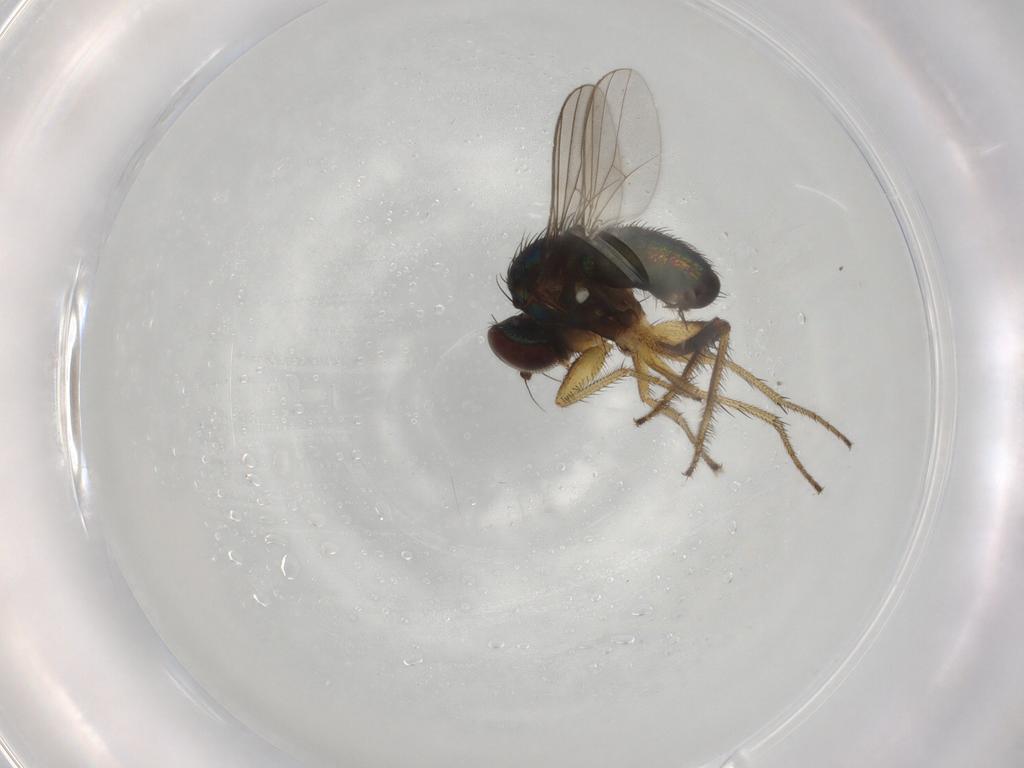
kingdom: Animalia
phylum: Arthropoda
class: Insecta
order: Diptera
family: Dolichopodidae
